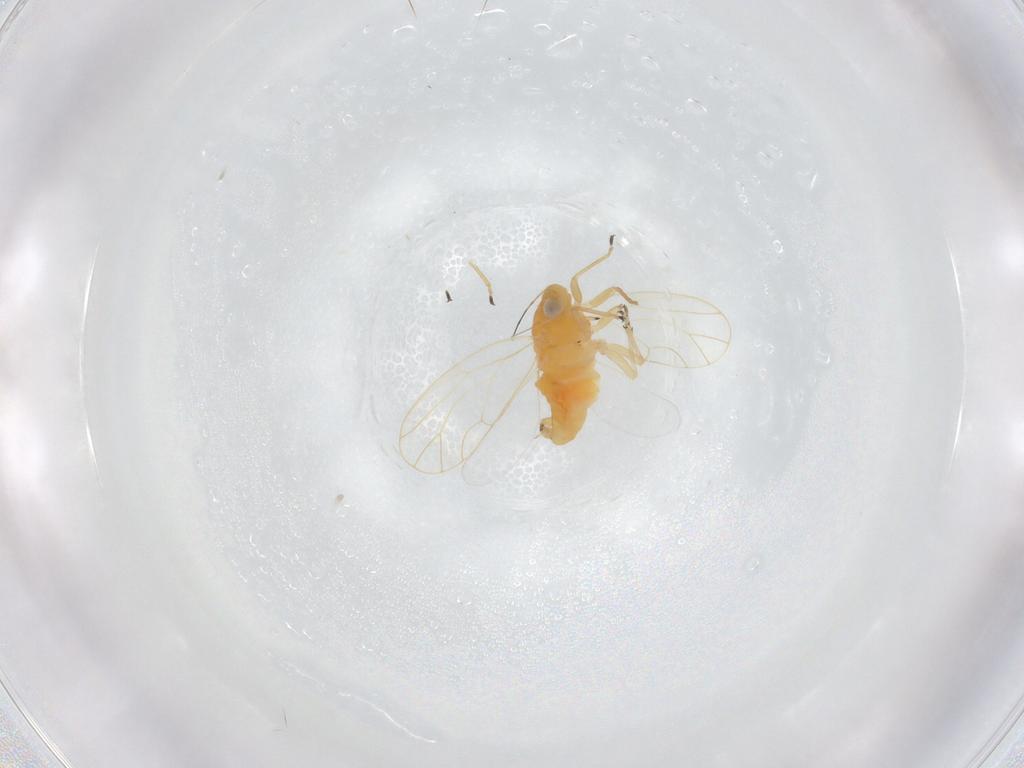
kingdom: Animalia
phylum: Arthropoda
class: Insecta
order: Hemiptera
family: Psyllidae
